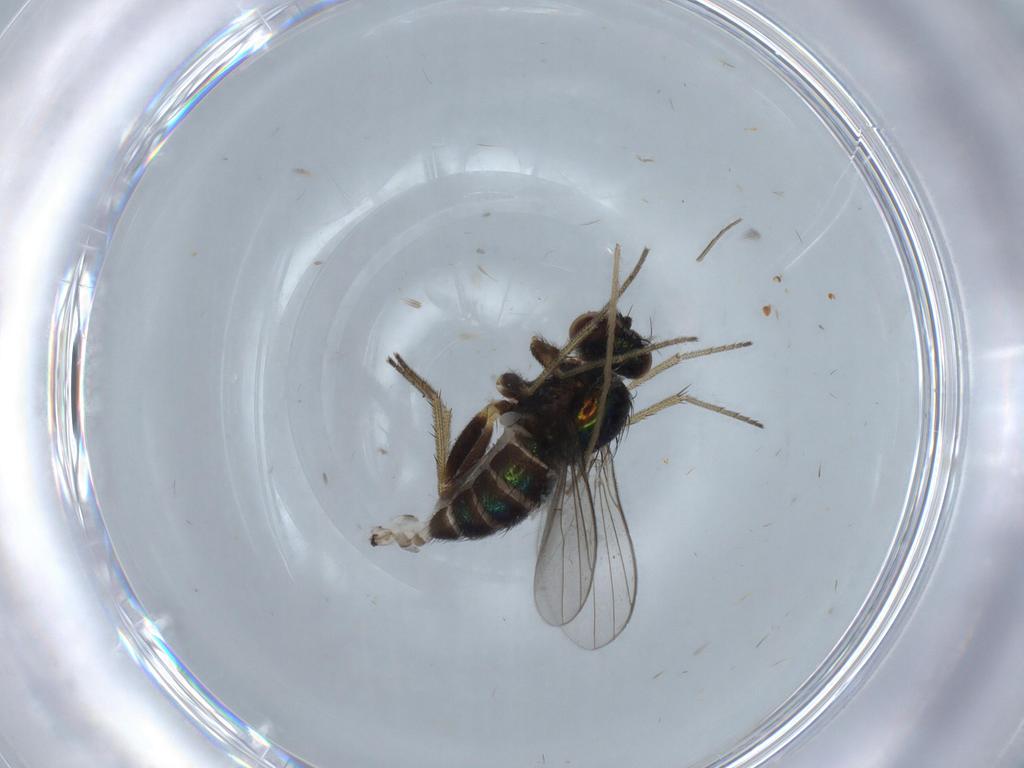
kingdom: Animalia
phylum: Arthropoda
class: Insecta
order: Diptera
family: Chironomidae
